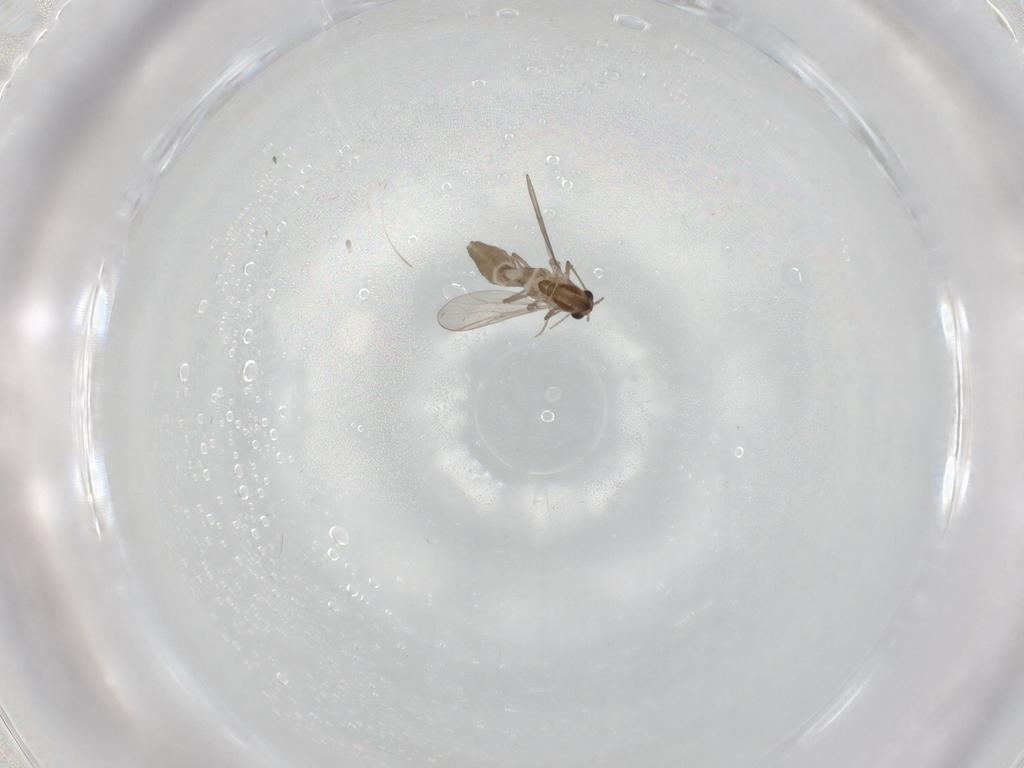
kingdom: Animalia
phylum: Arthropoda
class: Insecta
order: Diptera
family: Chironomidae
